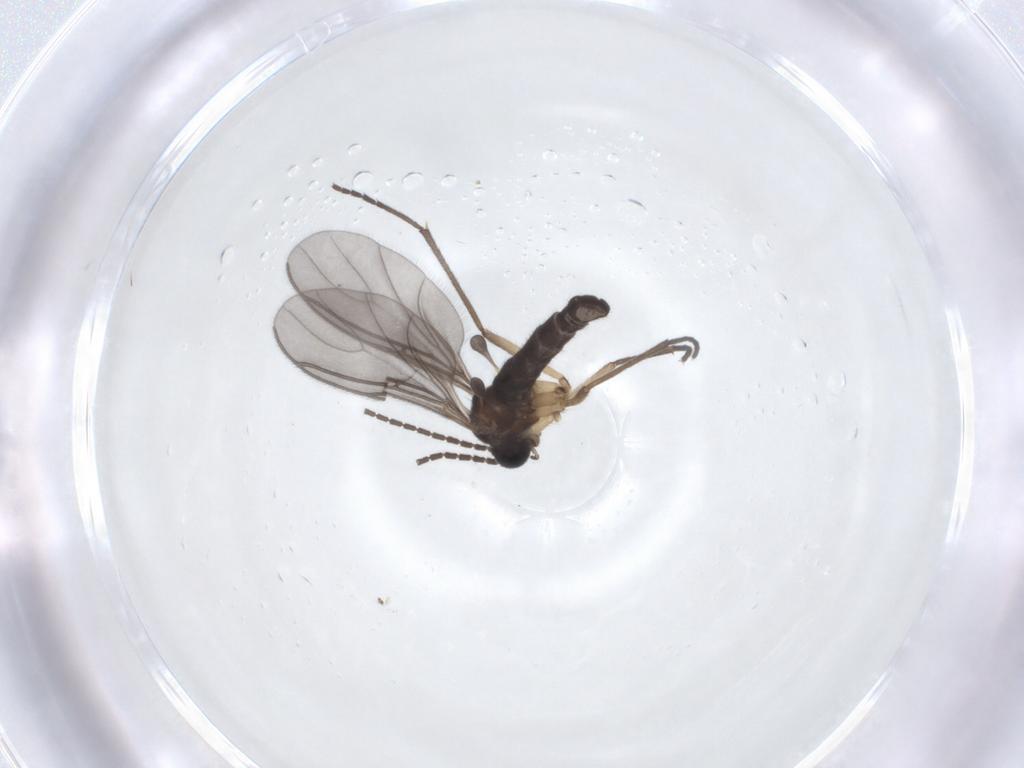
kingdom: Animalia
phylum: Arthropoda
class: Insecta
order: Diptera
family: Sciaridae
